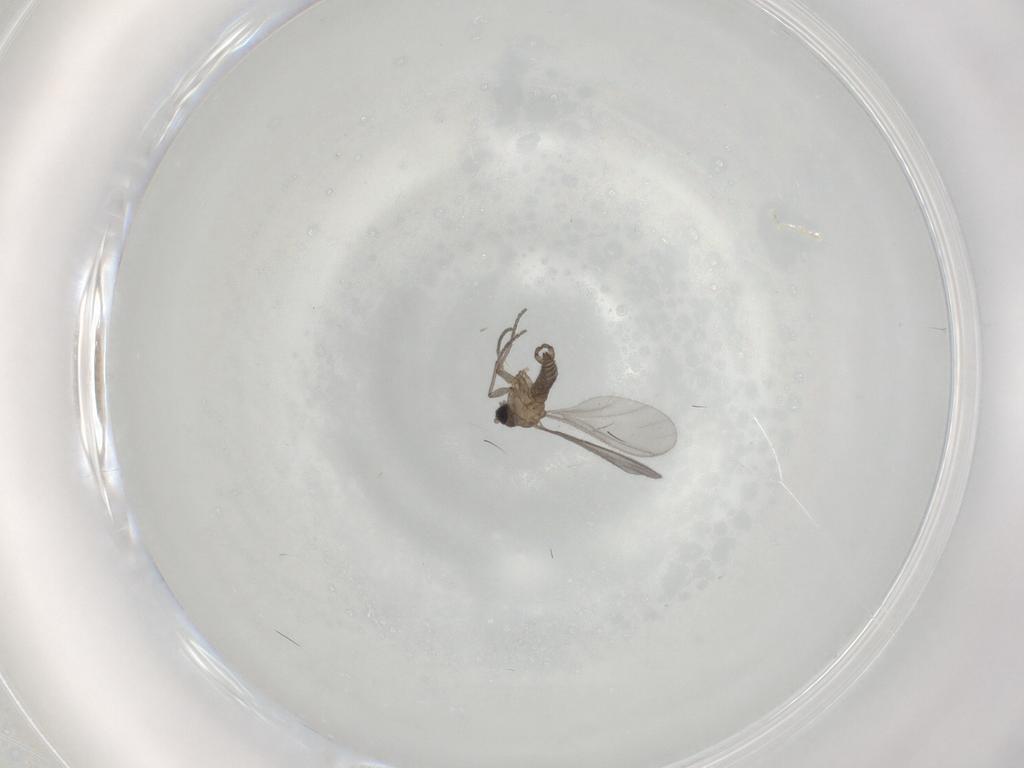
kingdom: Animalia
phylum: Arthropoda
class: Insecta
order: Diptera
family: Sciaridae
